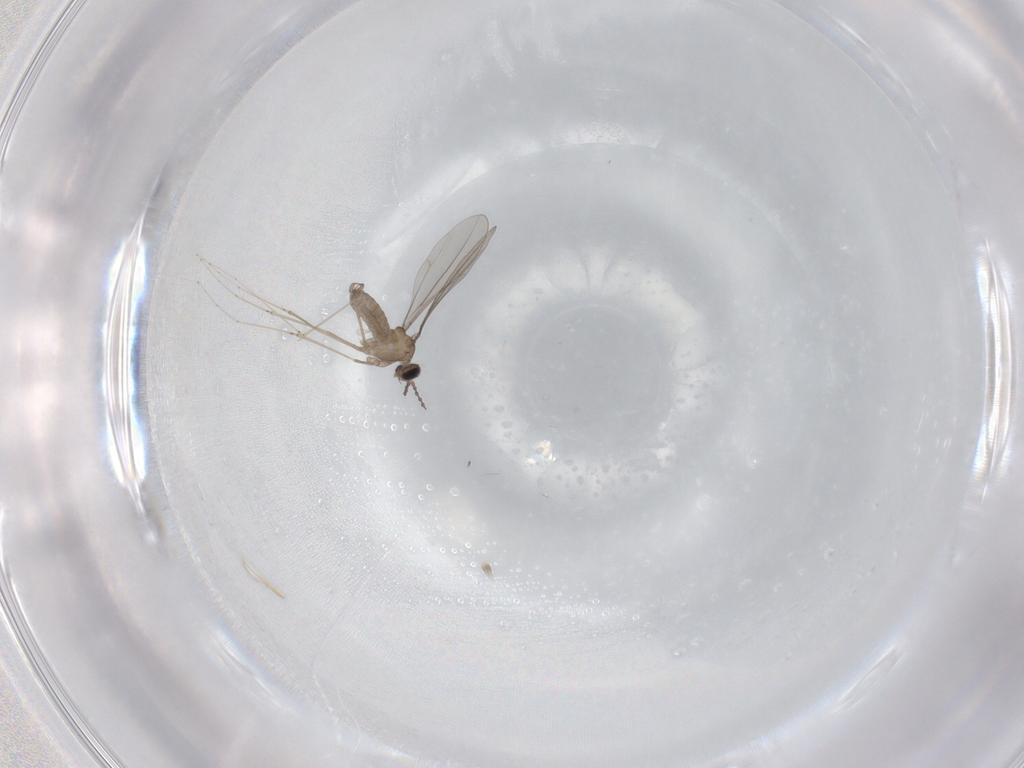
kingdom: Animalia
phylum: Arthropoda
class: Insecta
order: Diptera
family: Cecidomyiidae
